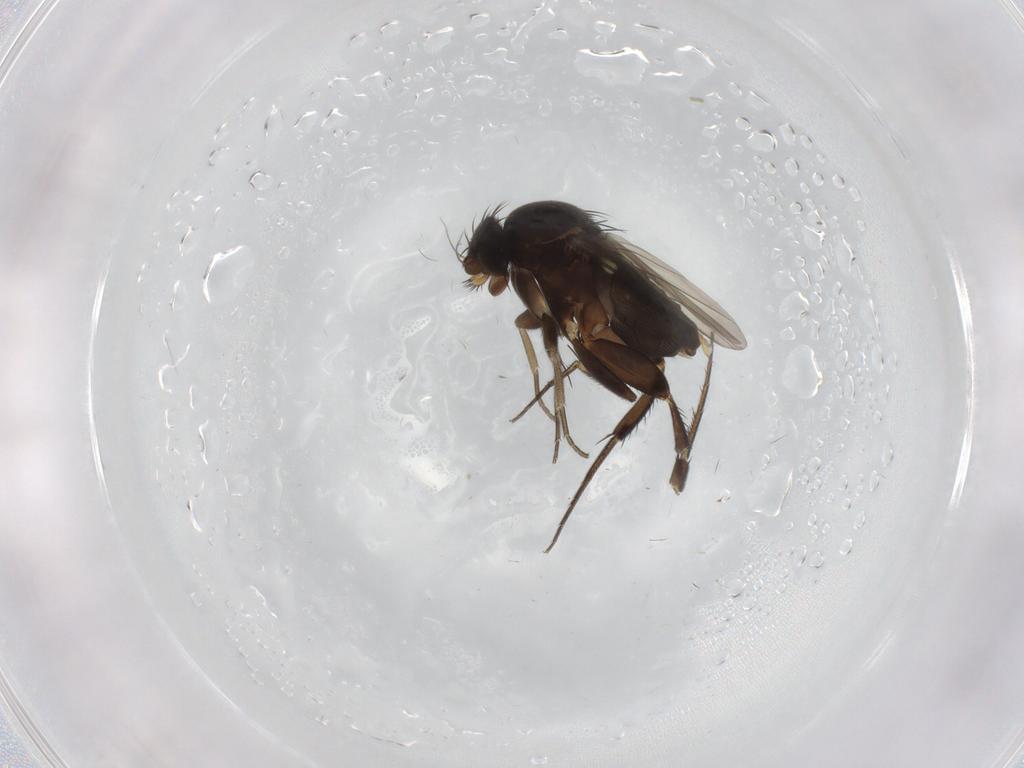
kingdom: Animalia
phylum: Arthropoda
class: Insecta
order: Diptera
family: Phoridae
